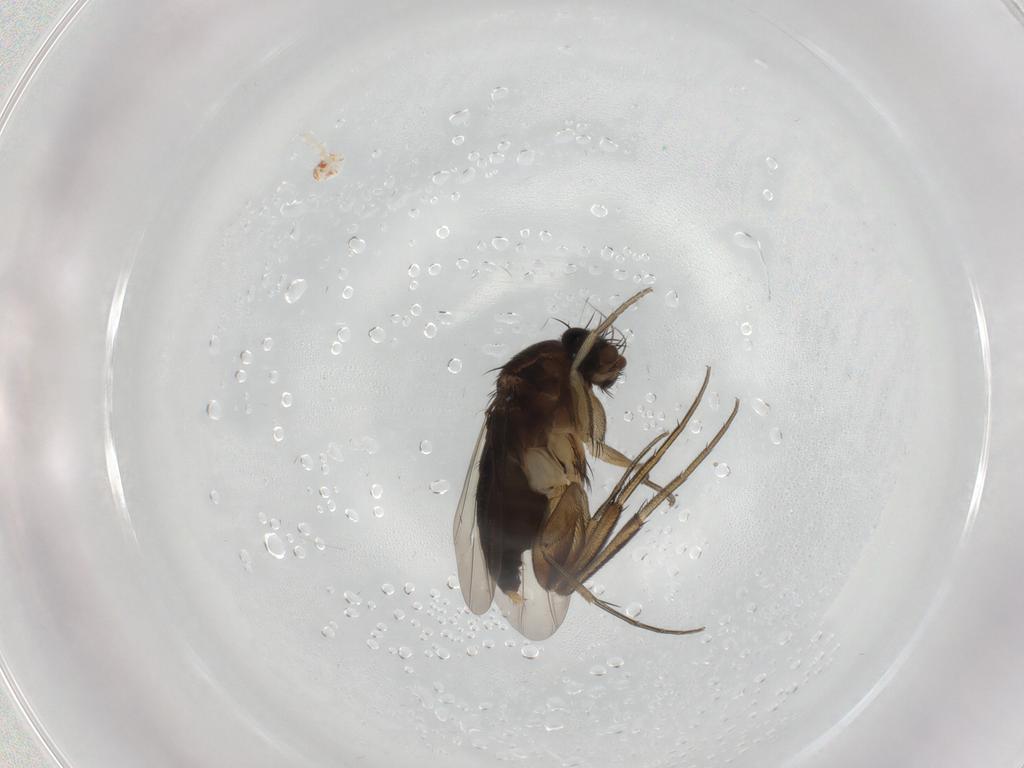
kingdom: Animalia
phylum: Arthropoda
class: Insecta
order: Diptera
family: Phoridae
